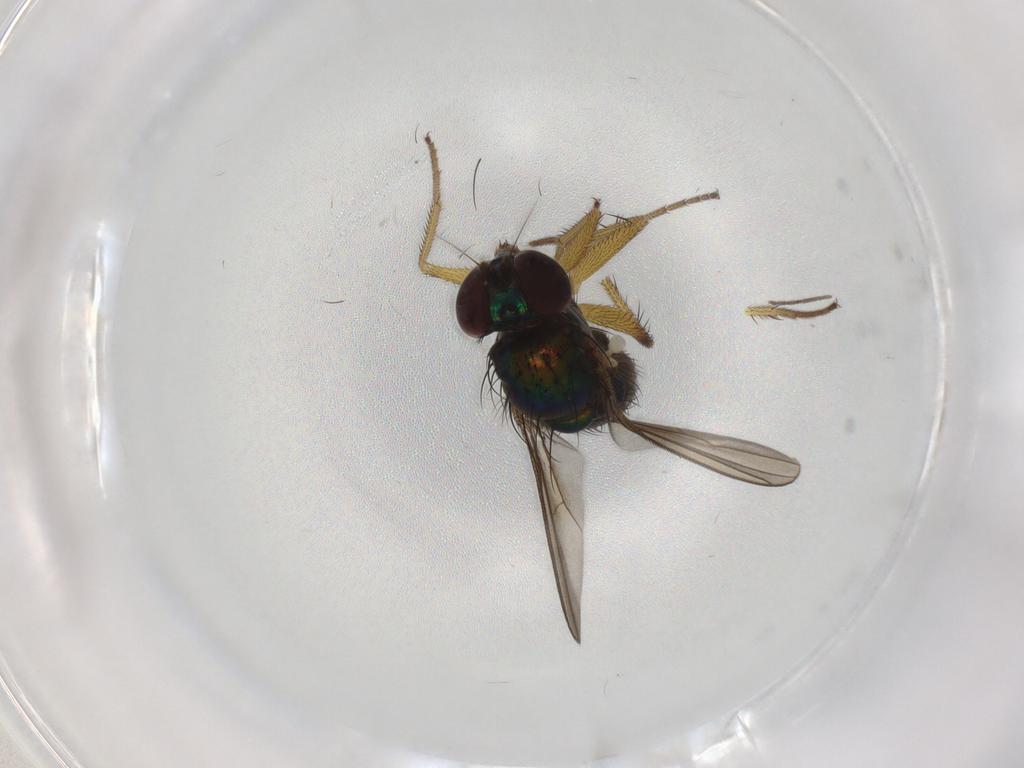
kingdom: Animalia
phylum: Arthropoda
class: Insecta
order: Diptera
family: Dolichopodidae
